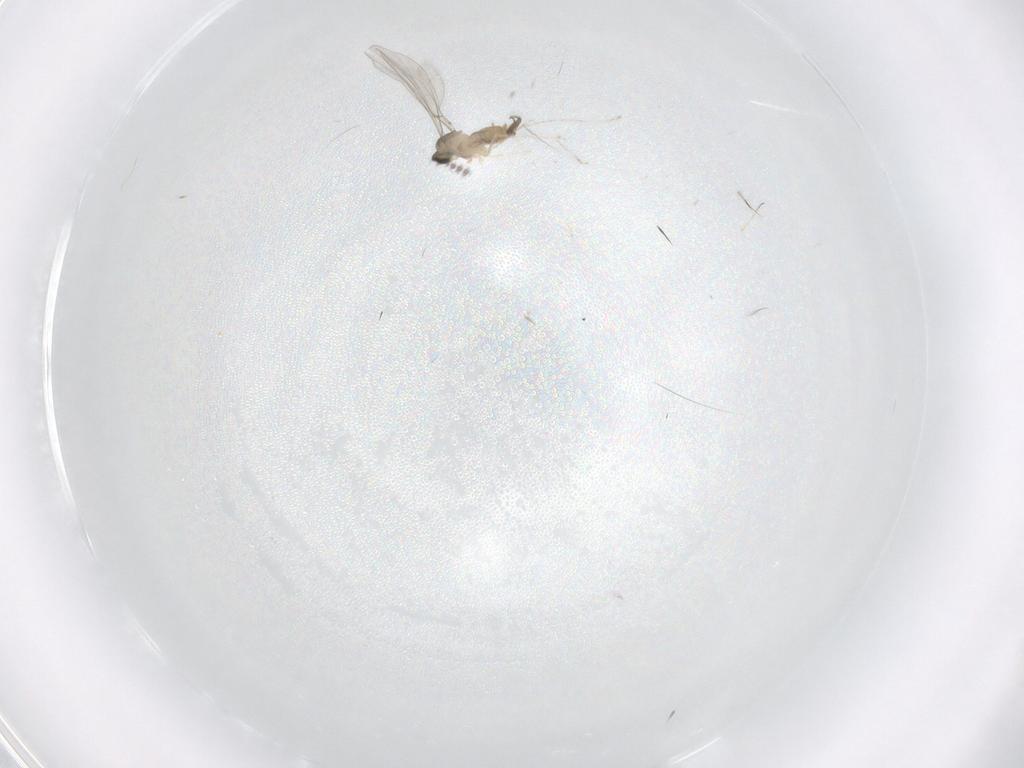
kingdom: Animalia
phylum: Arthropoda
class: Insecta
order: Diptera
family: Cecidomyiidae
